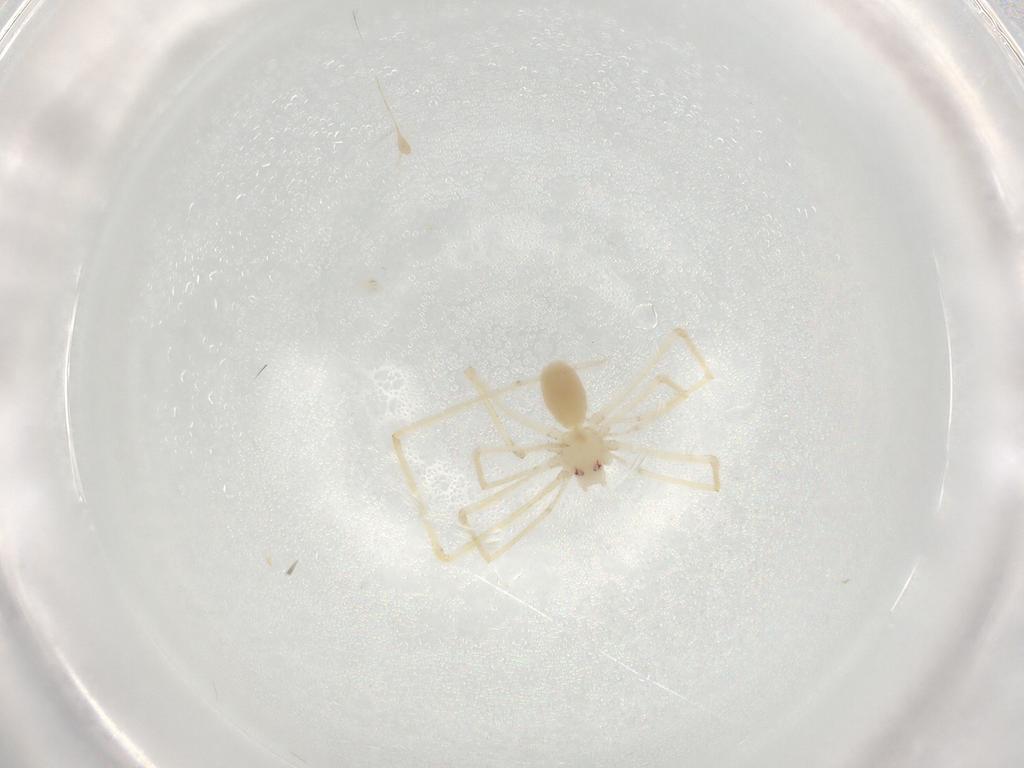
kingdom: Animalia
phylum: Arthropoda
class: Arachnida
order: Araneae
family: Pholcidae
